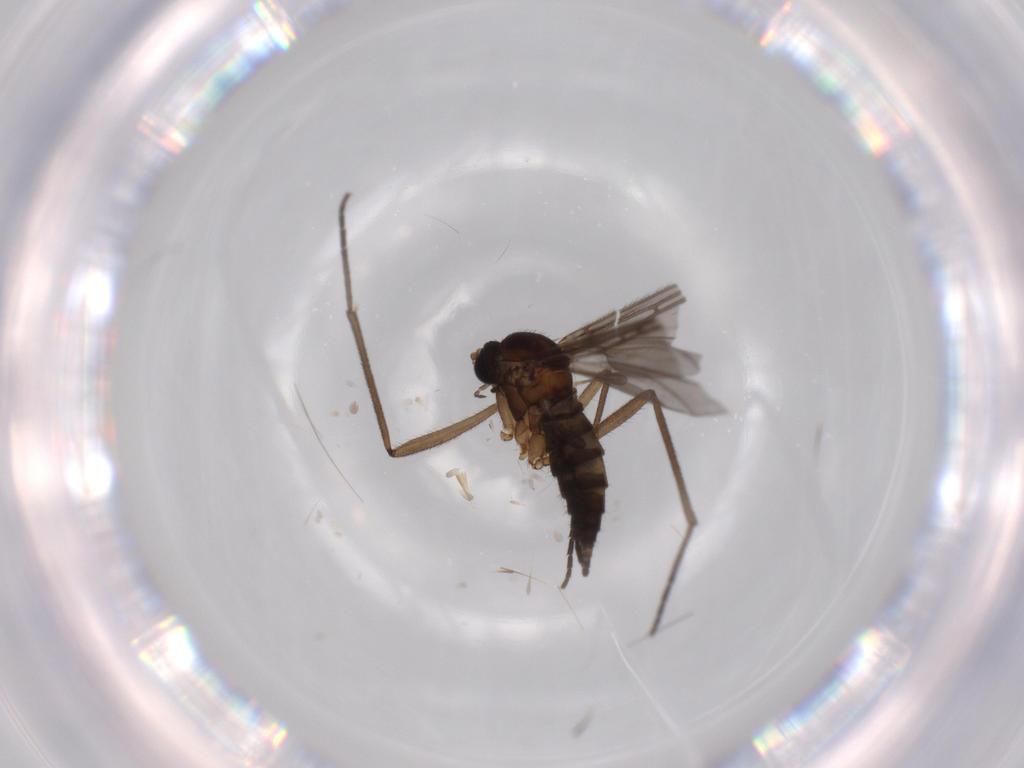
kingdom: Animalia
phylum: Arthropoda
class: Insecta
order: Diptera
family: Sciaridae
